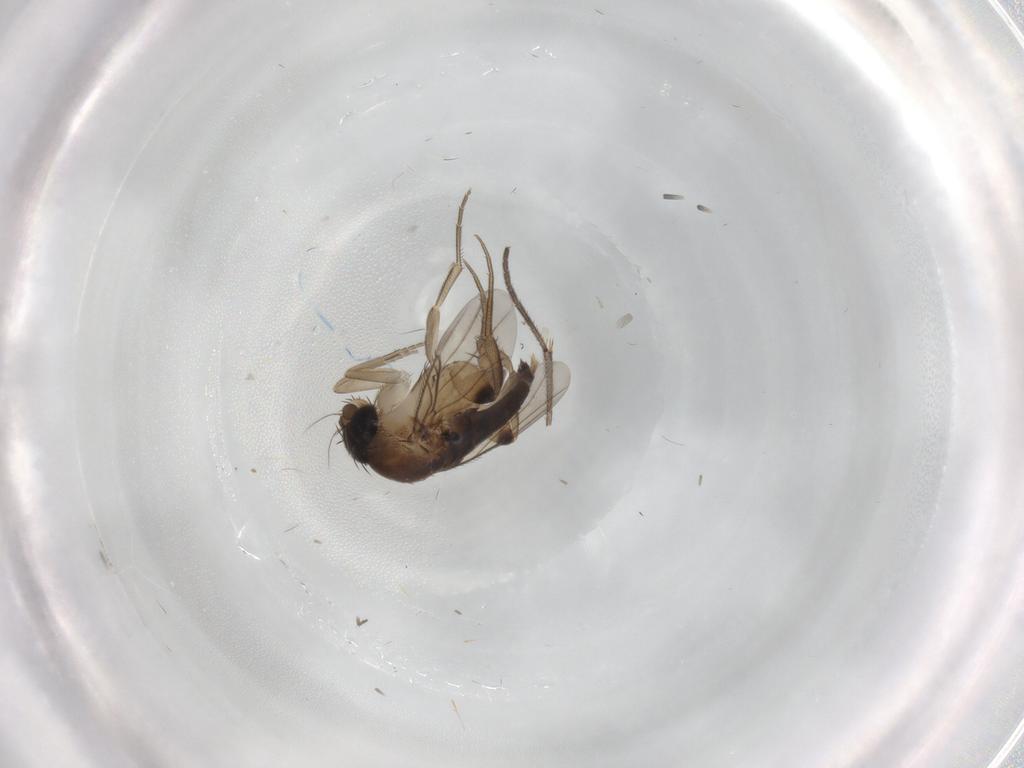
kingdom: Animalia
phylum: Arthropoda
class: Insecta
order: Diptera
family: Phoridae
